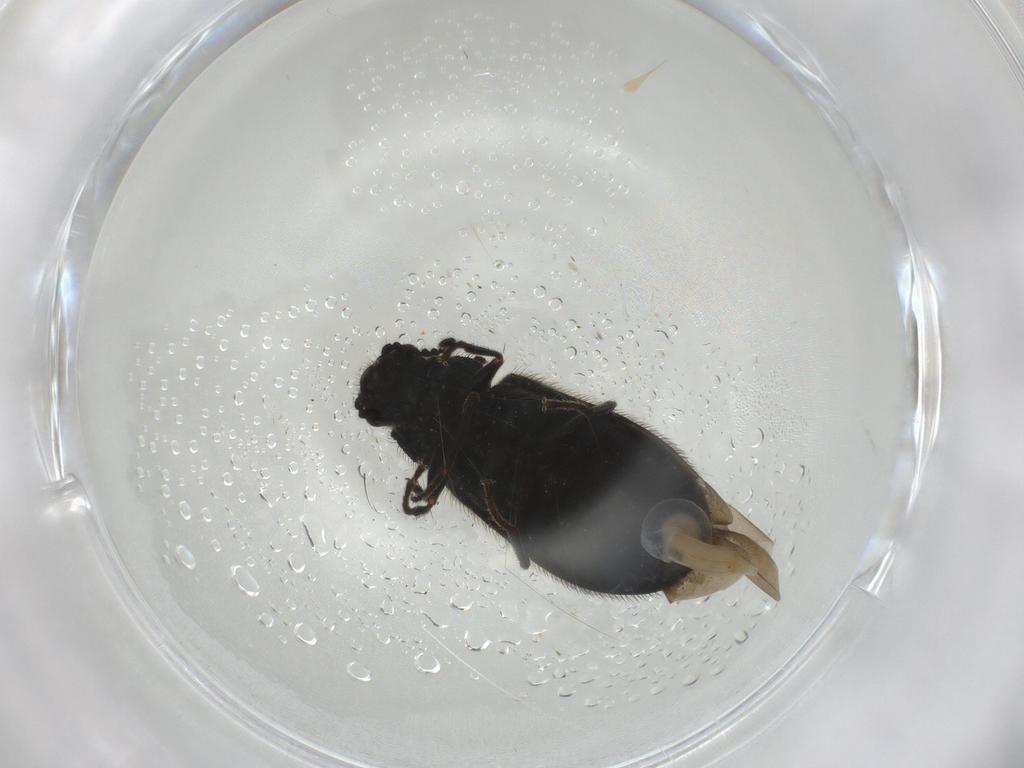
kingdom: Animalia
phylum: Arthropoda
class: Insecta
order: Coleoptera
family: Melyridae
